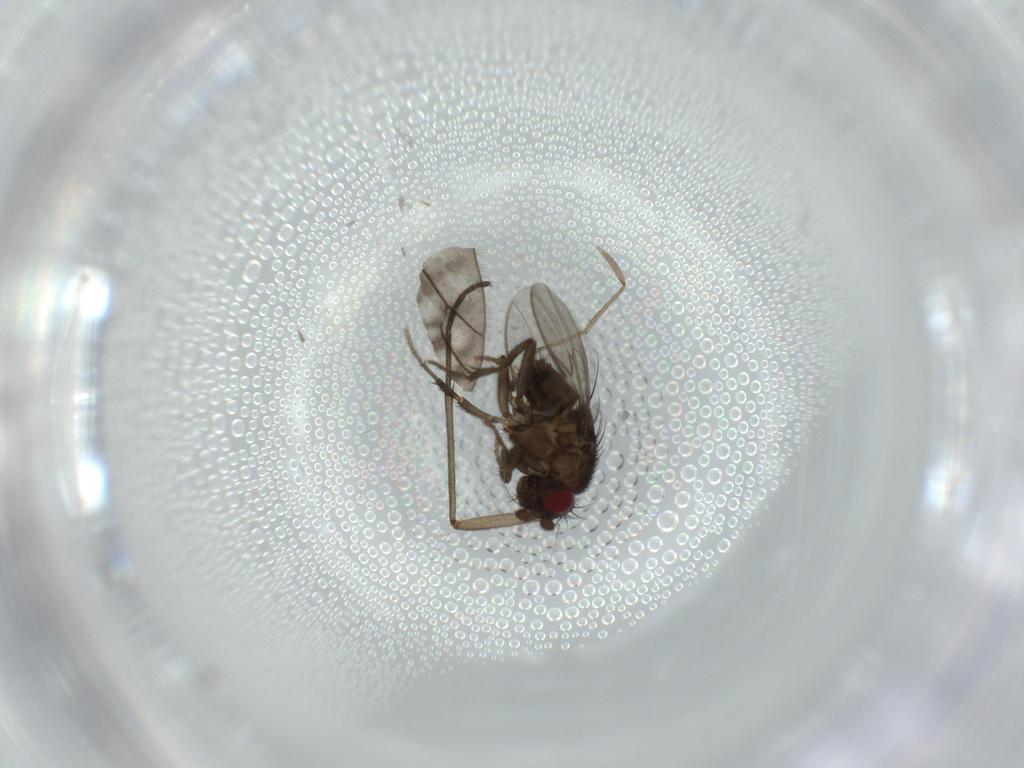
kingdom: Animalia
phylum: Arthropoda
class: Insecta
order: Diptera
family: Sciaridae
